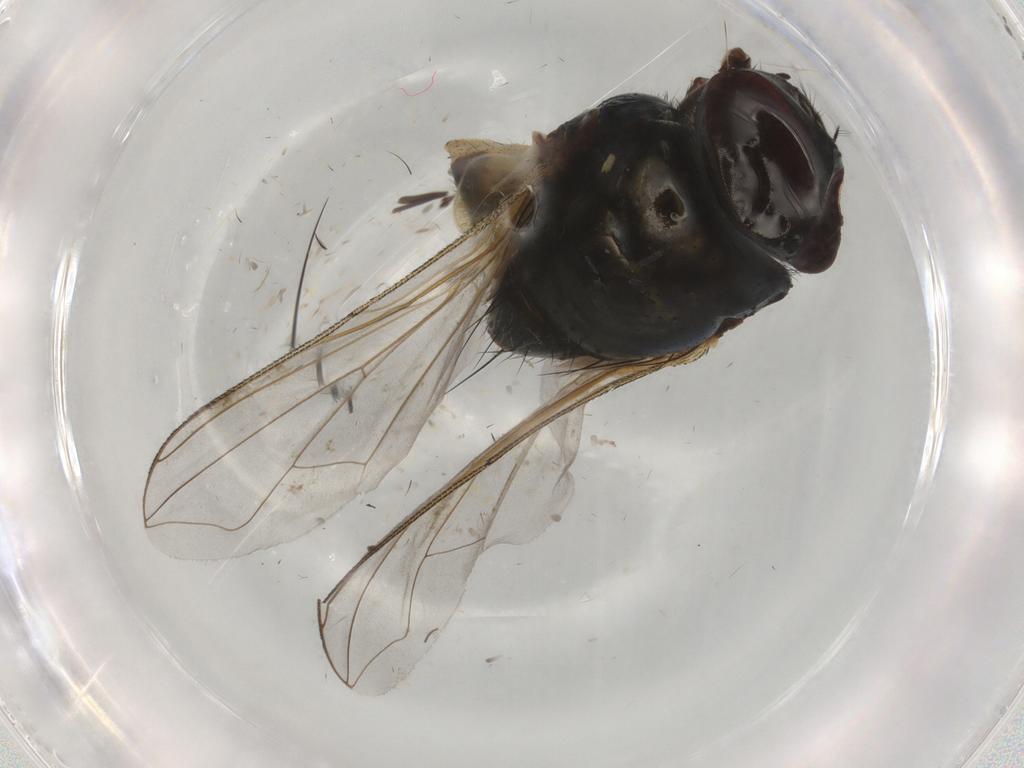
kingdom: Animalia
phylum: Arthropoda
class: Insecta
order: Diptera
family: Muscidae
